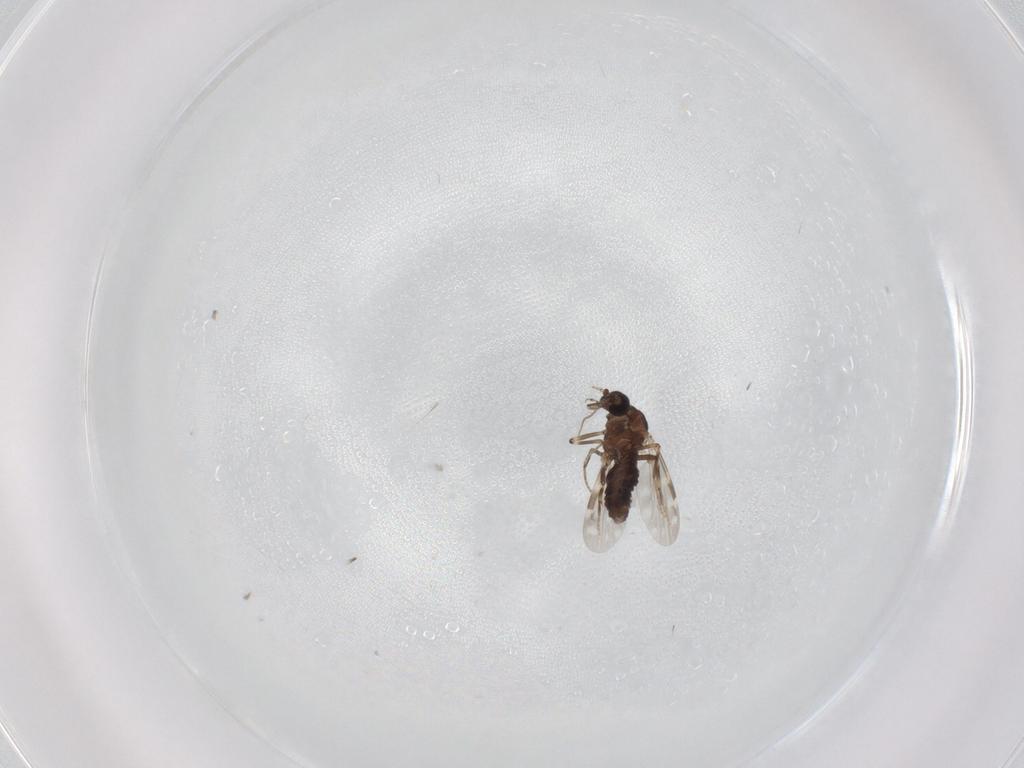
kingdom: Animalia
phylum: Arthropoda
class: Insecta
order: Diptera
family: Ceratopogonidae
